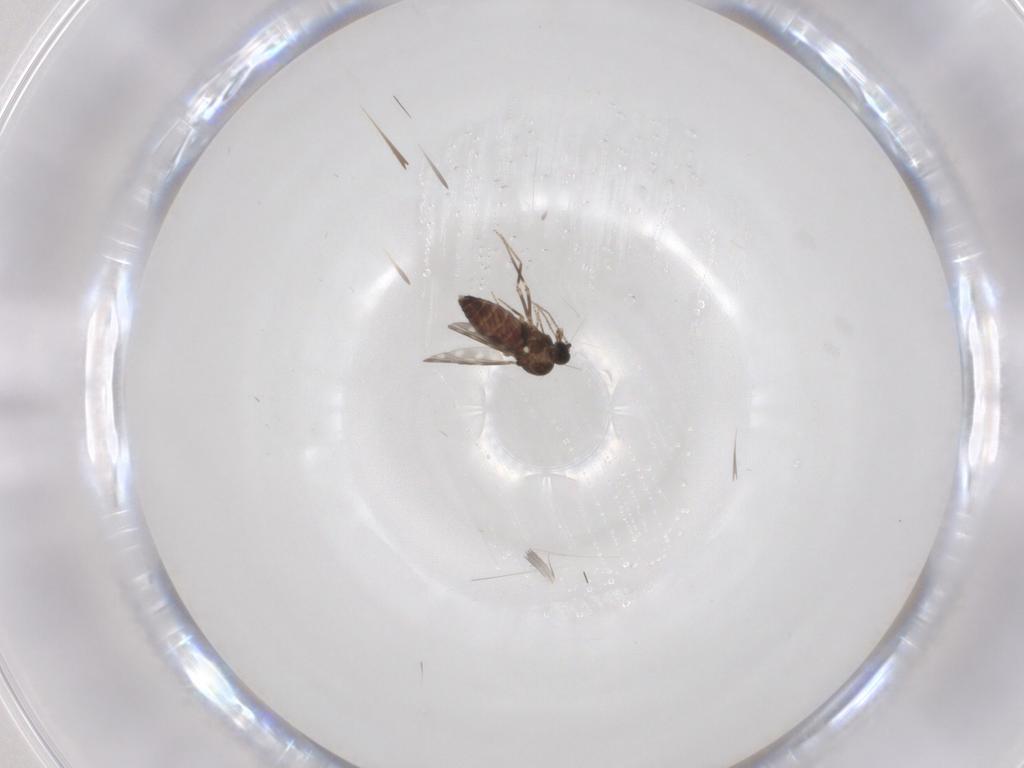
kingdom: Animalia
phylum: Arthropoda
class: Insecta
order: Diptera
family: Ceratopogonidae
